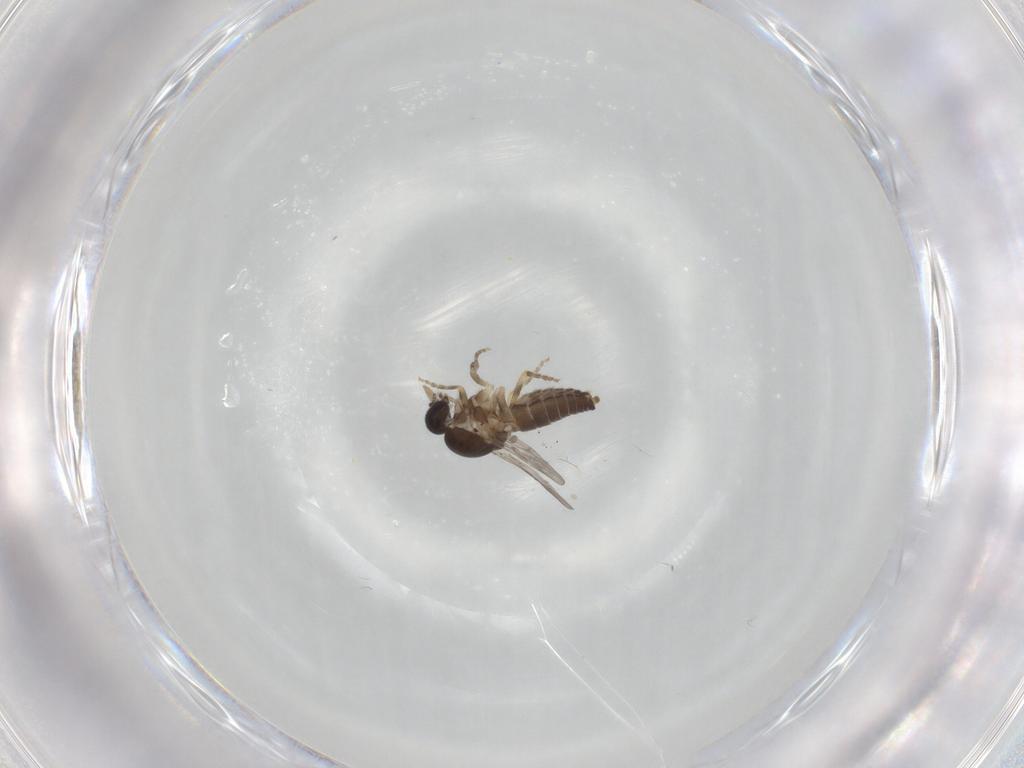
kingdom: Animalia
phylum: Arthropoda
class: Insecta
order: Diptera
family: Ceratopogonidae
